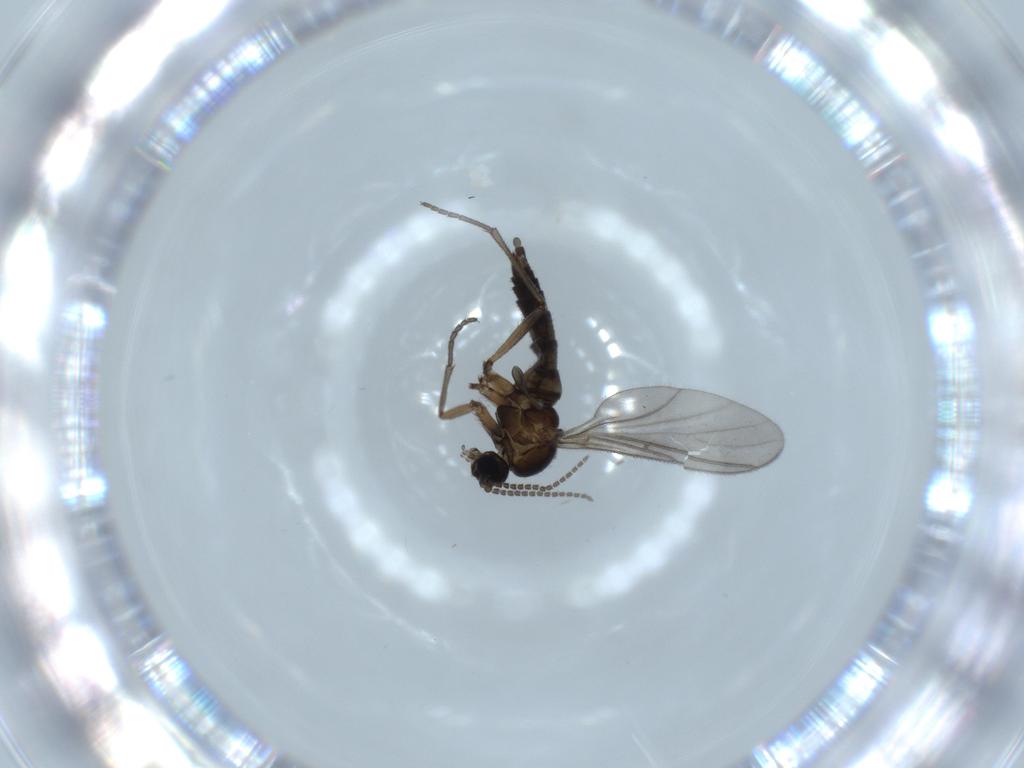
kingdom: Animalia
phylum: Arthropoda
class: Insecta
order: Diptera
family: Sciaridae
